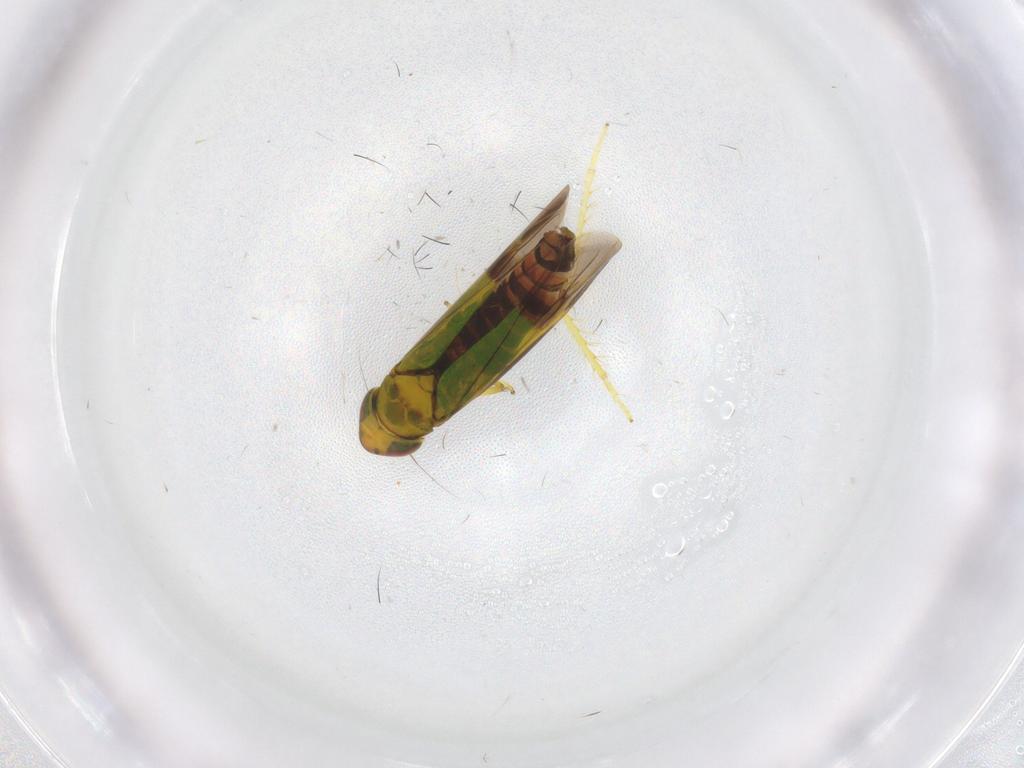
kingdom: Animalia
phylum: Arthropoda
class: Insecta
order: Hemiptera
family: Cicadellidae
